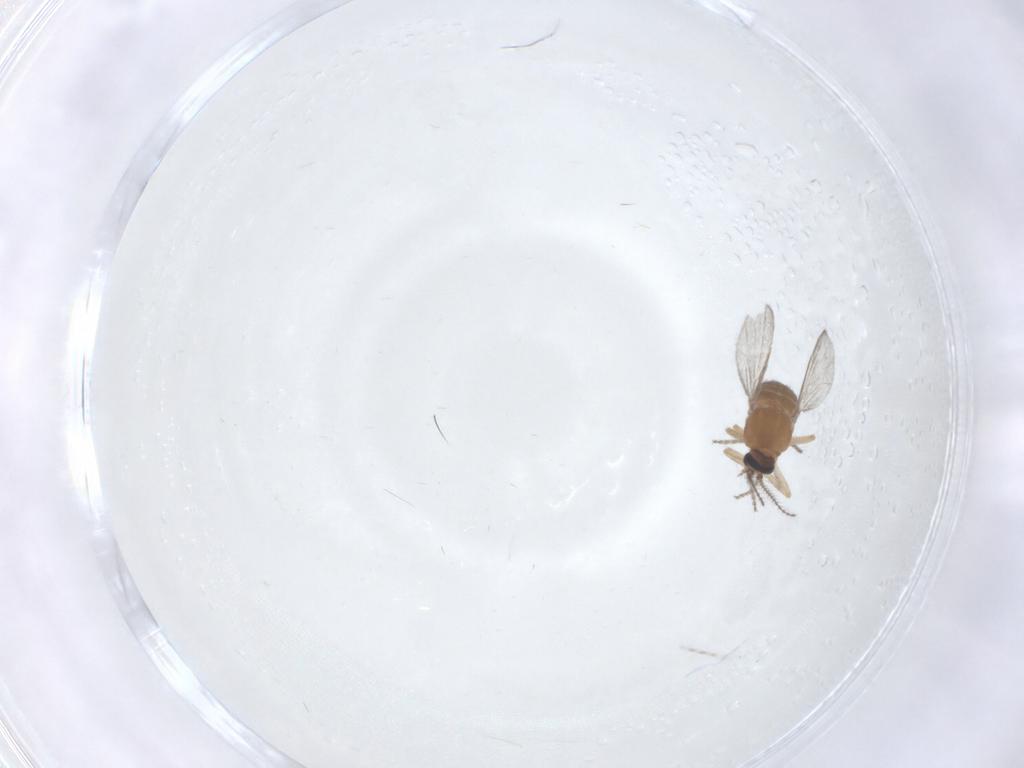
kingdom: Animalia
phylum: Arthropoda
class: Insecta
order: Diptera
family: Ceratopogonidae
